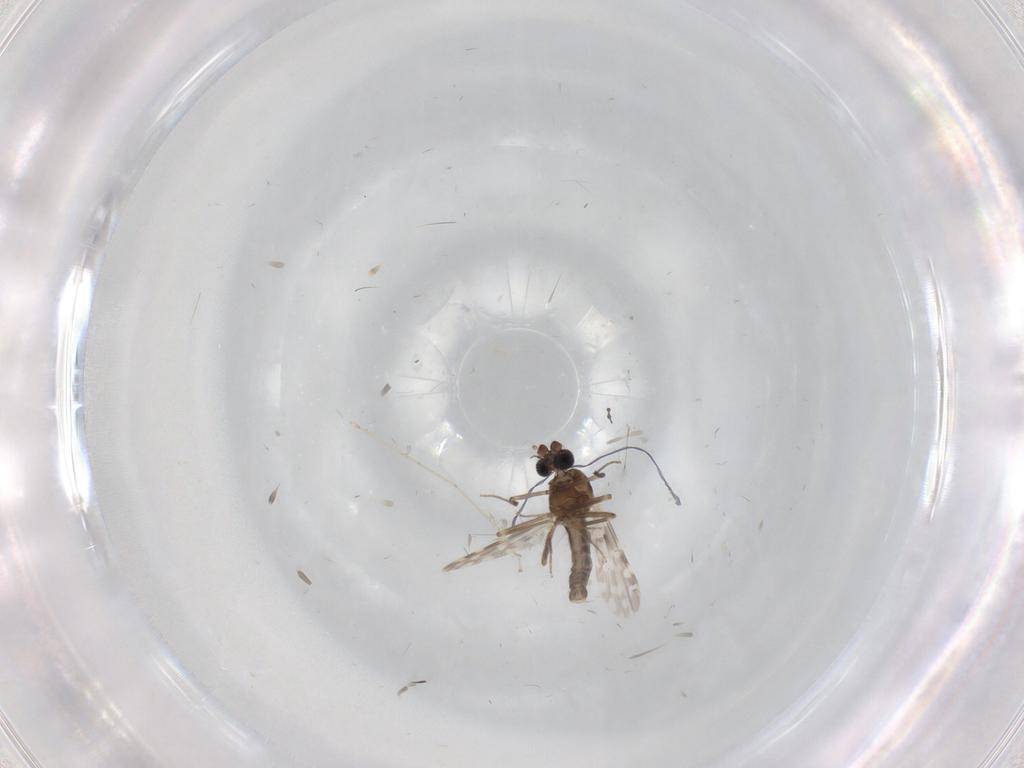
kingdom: Animalia
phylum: Arthropoda
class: Insecta
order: Diptera
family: Ceratopogonidae
